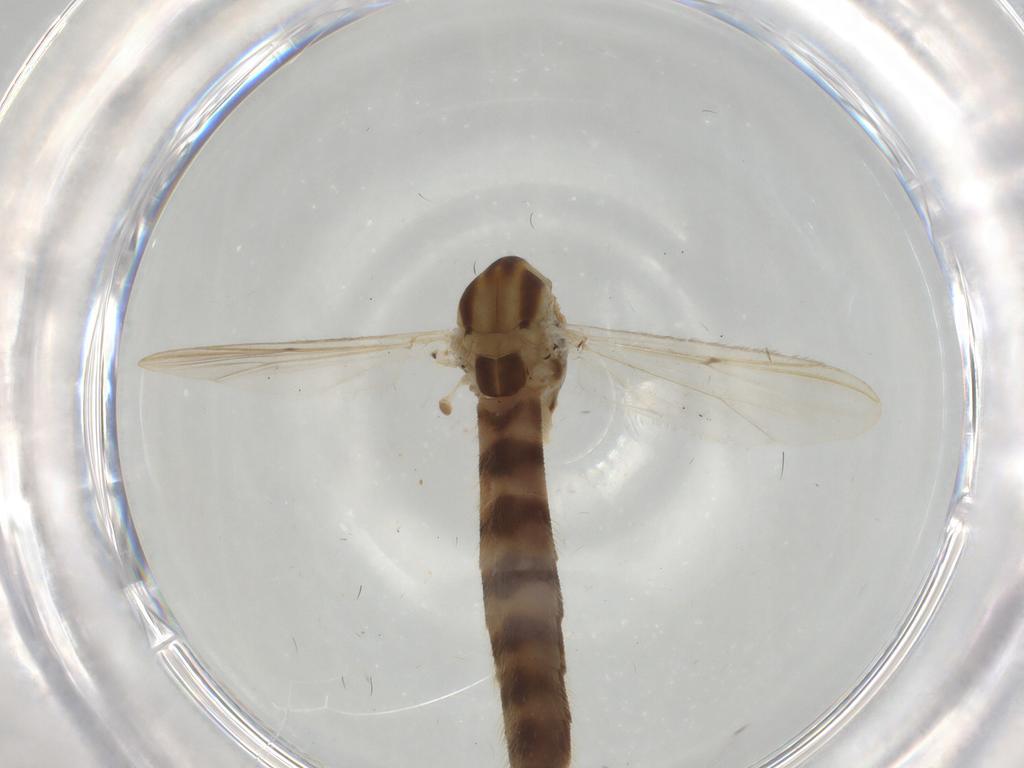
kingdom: Animalia
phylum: Arthropoda
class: Insecta
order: Diptera
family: Chironomidae
